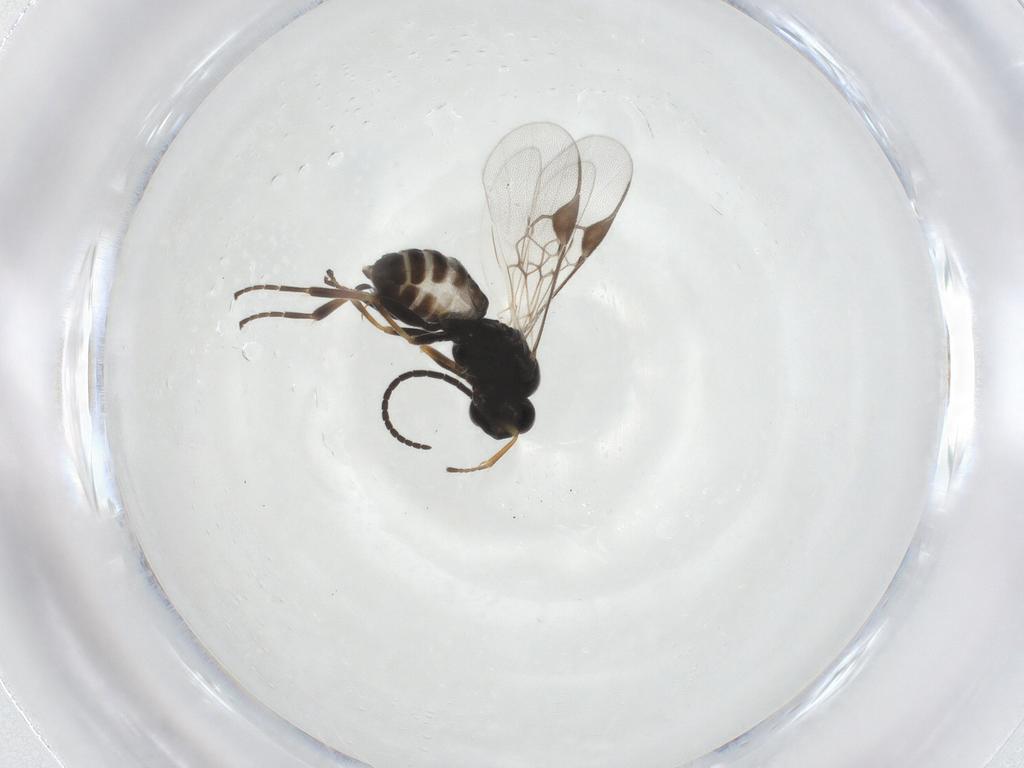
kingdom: Animalia
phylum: Arthropoda
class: Insecta
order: Hymenoptera
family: Braconidae
